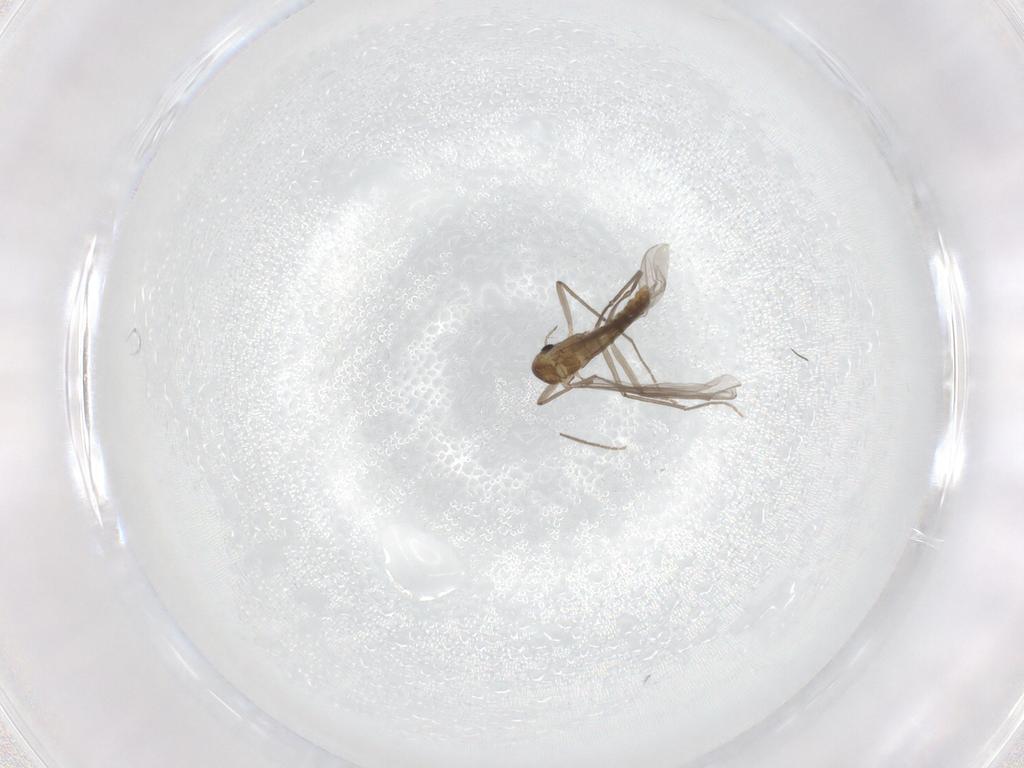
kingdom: Animalia
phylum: Arthropoda
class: Insecta
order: Diptera
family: Chironomidae
